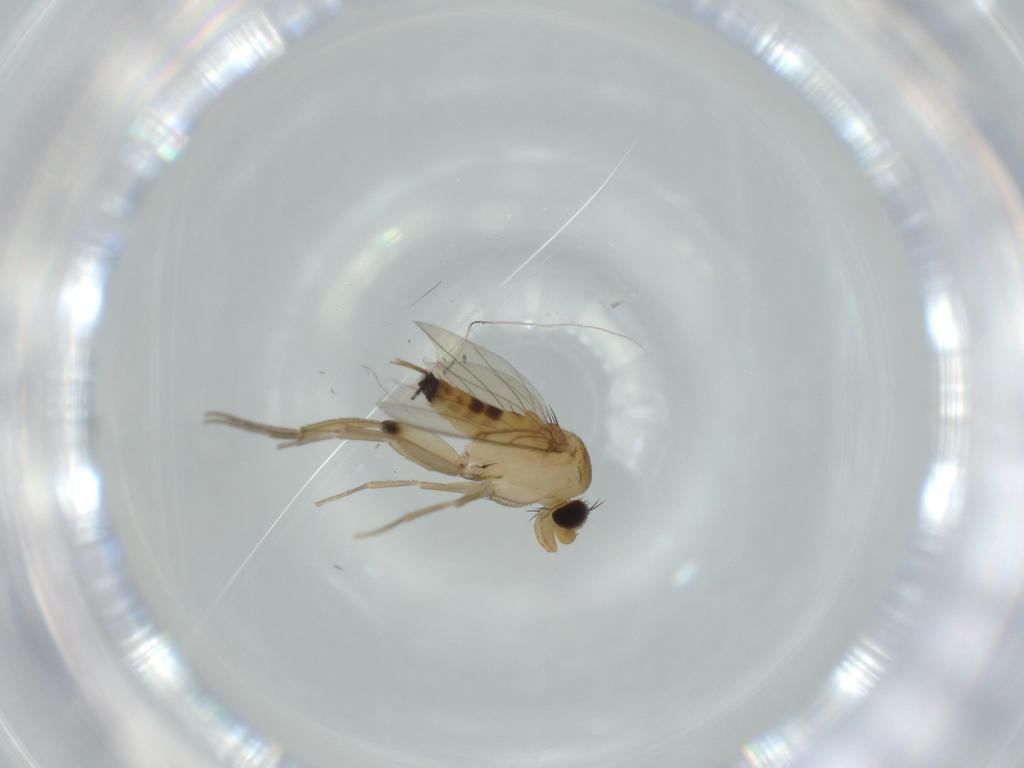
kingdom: Animalia
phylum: Arthropoda
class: Insecta
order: Diptera
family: Phoridae
